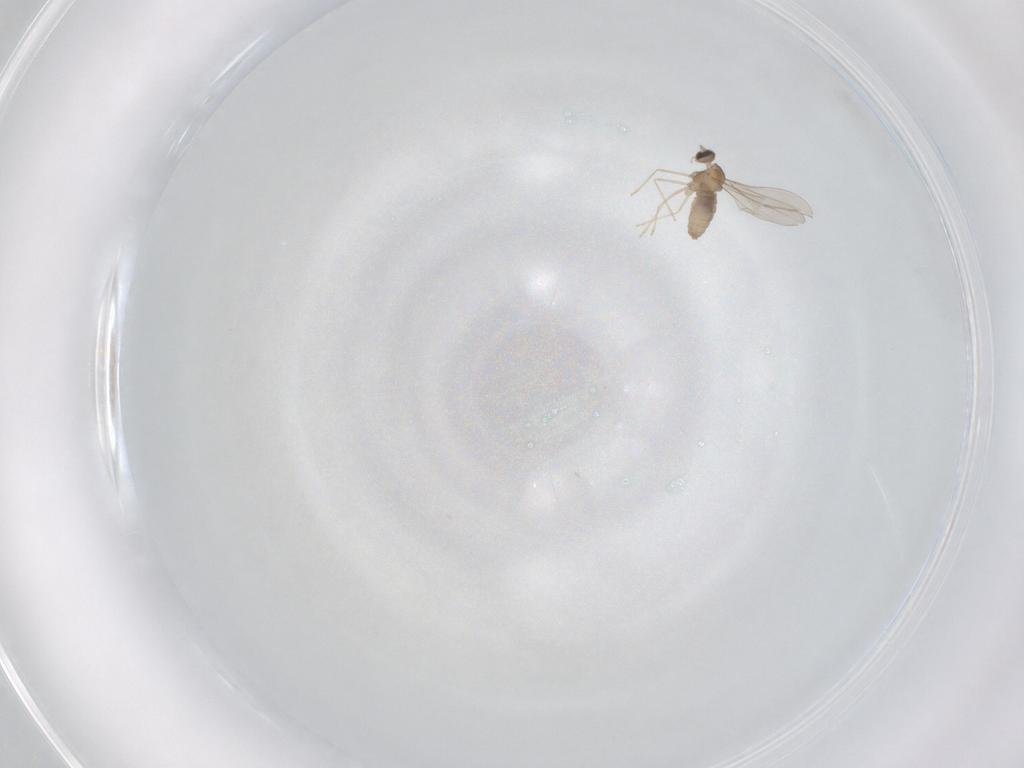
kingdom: Animalia
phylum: Arthropoda
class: Insecta
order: Diptera
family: Cecidomyiidae
